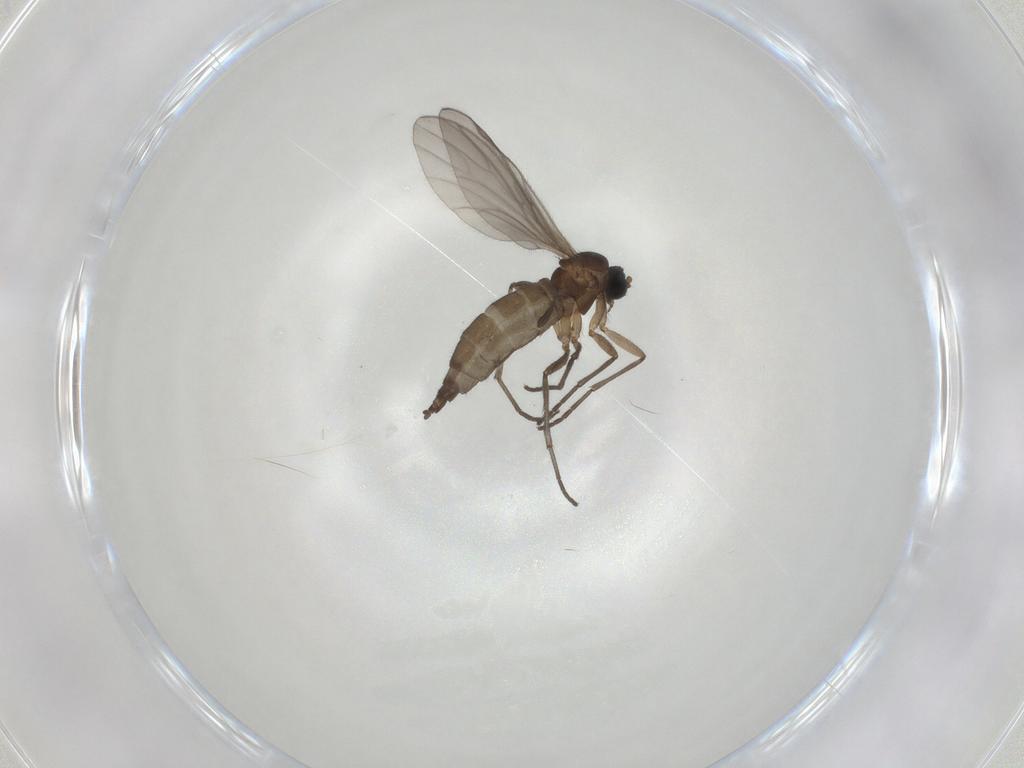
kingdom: Animalia
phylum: Arthropoda
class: Insecta
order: Diptera
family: Sciaridae
